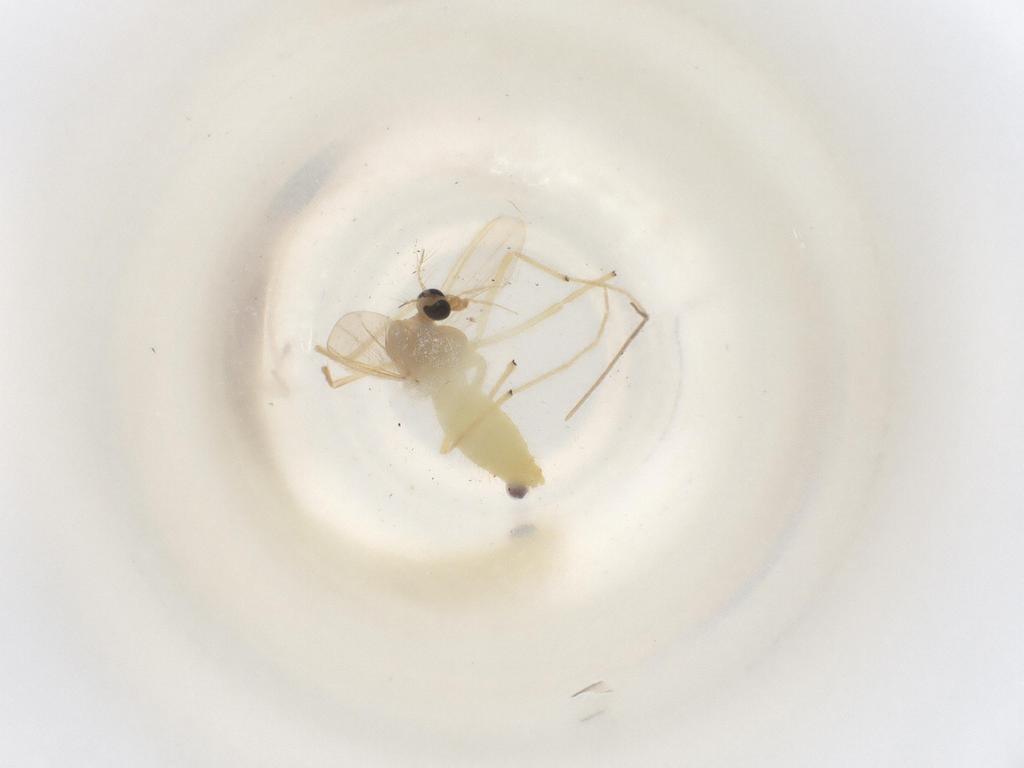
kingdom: Animalia
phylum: Arthropoda
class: Insecta
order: Diptera
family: Chironomidae
